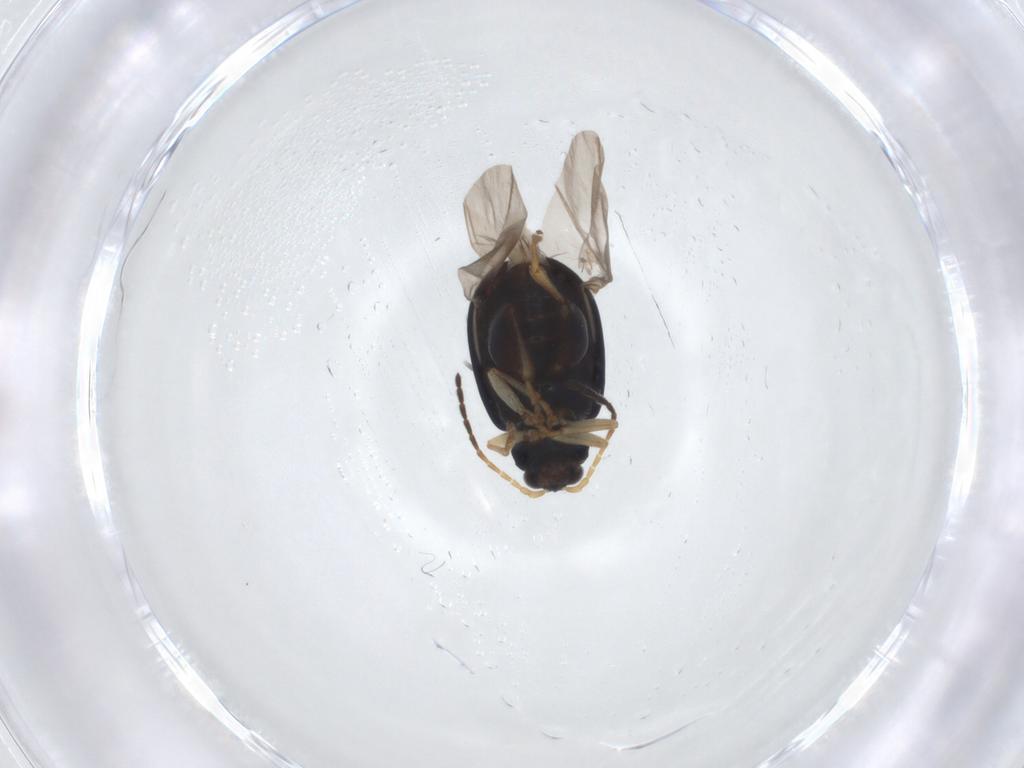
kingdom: Animalia
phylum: Arthropoda
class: Insecta
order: Coleoptera
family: Chrysomelidae
